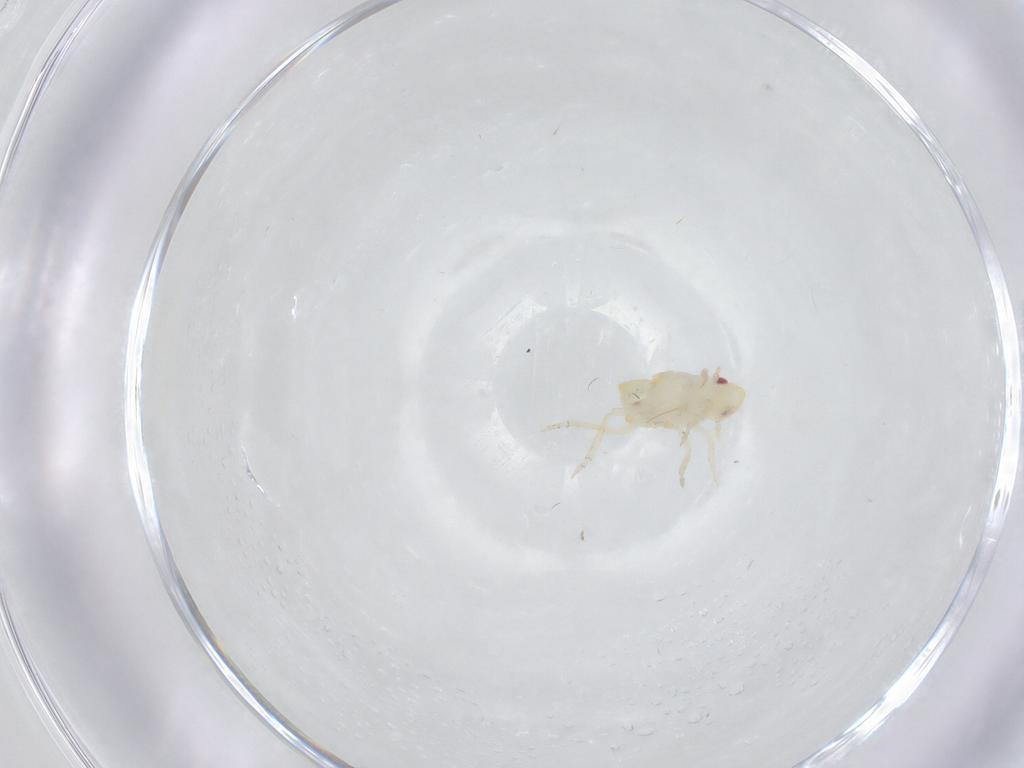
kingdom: Animalia
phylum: Arthropoda
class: Insecta
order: Hemiptera
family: Flatidae
